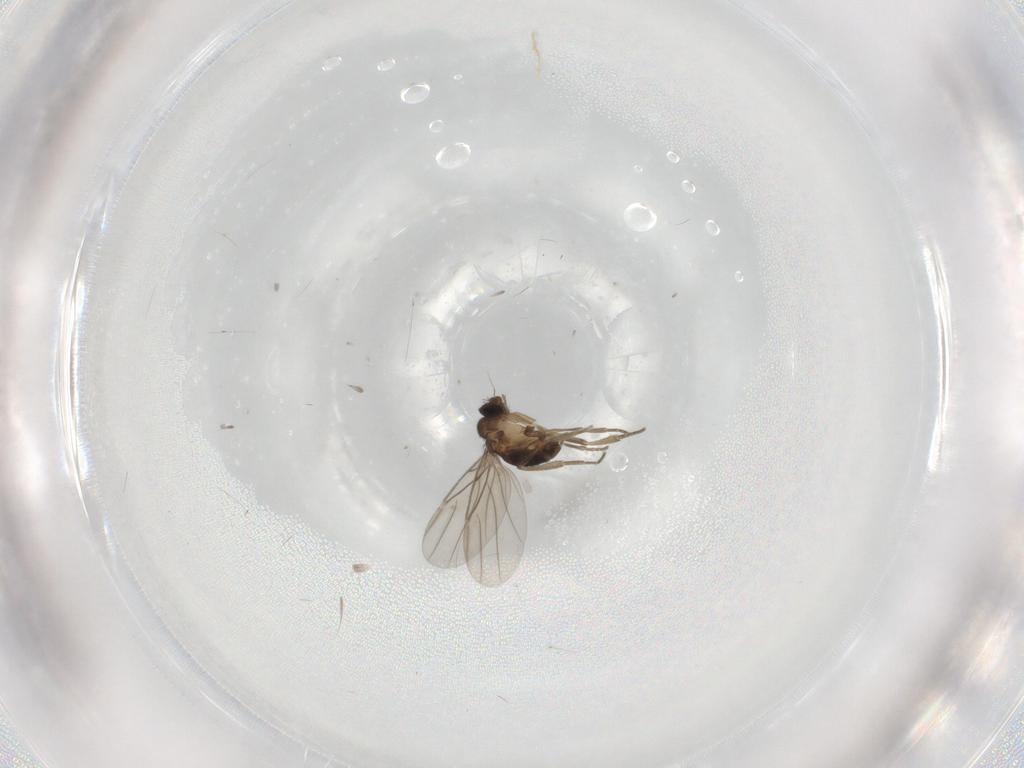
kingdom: Animalia
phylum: Arthropoda
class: Insecta
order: Diptera
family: Phoridae
